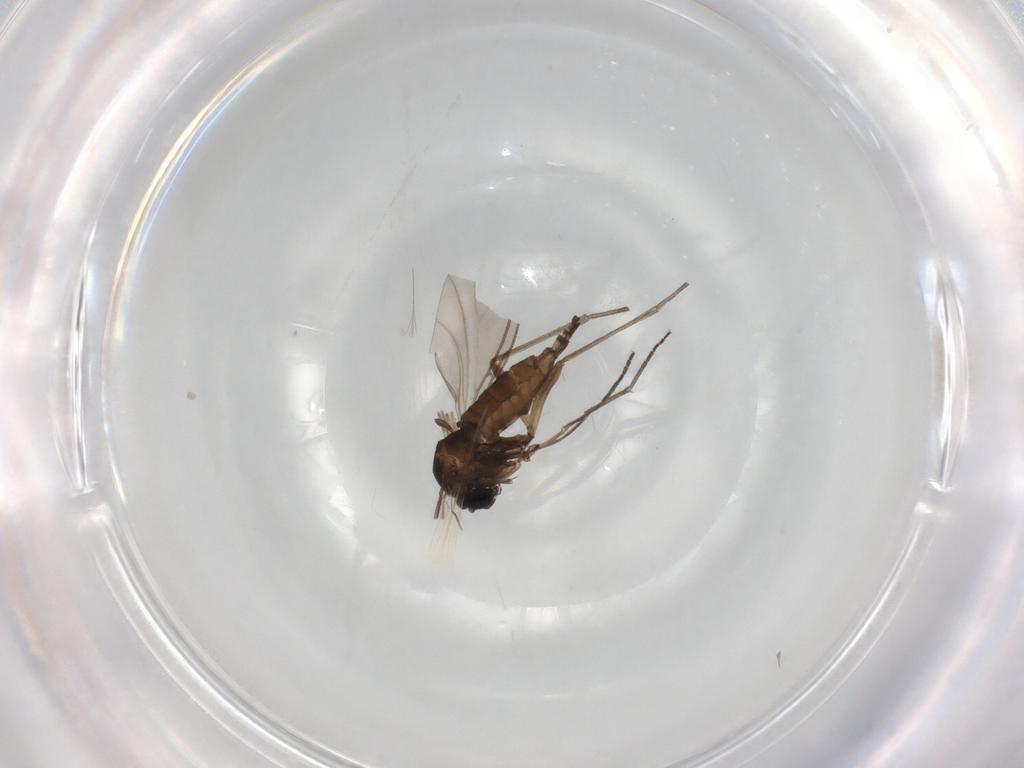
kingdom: Animalia
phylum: Arthropoda
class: Insecta
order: Diptera
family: Sciaridae
